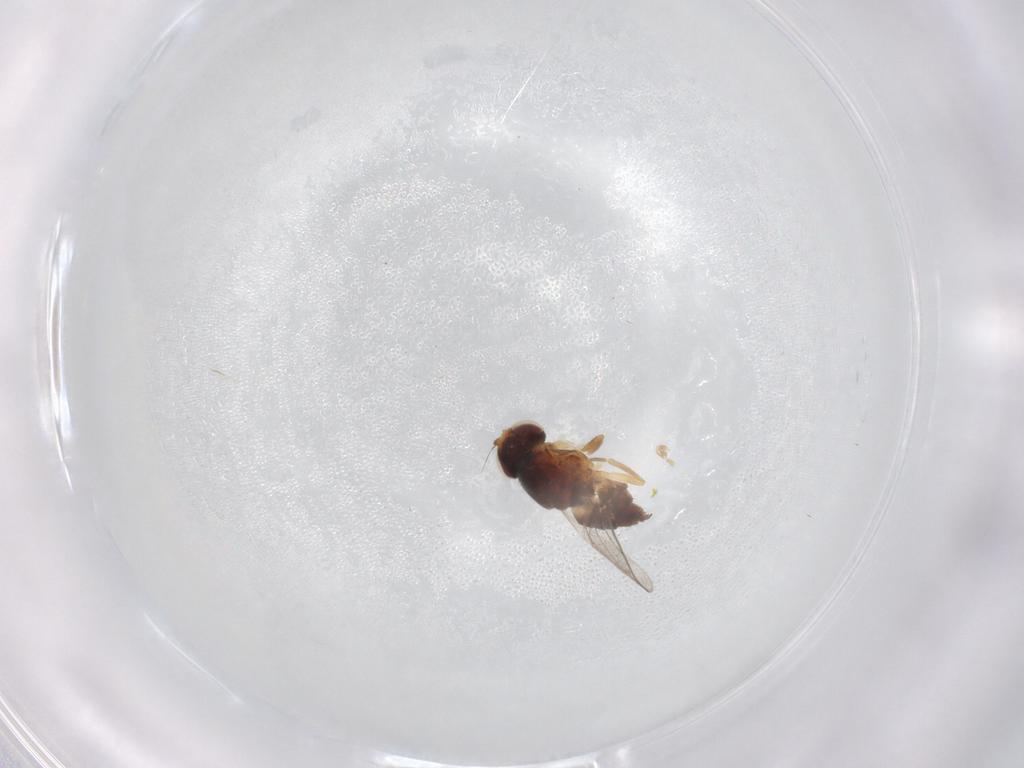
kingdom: Animalia
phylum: Arthropoda
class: Insecta
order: Diptera
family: Chloropidae
